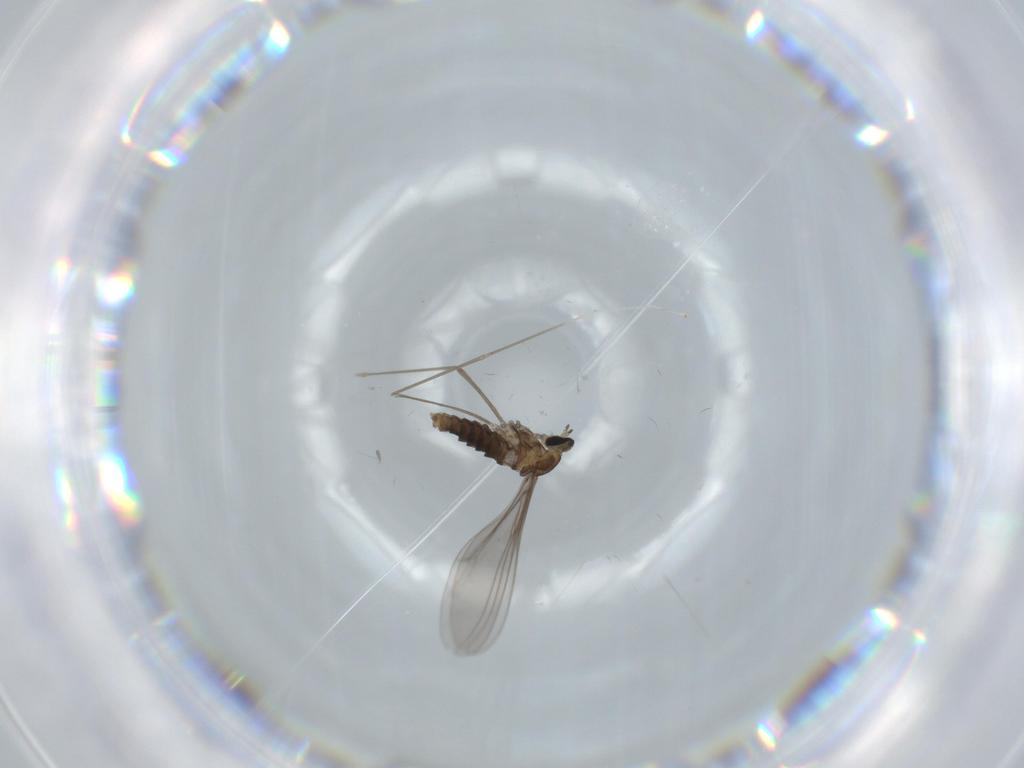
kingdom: Animalia
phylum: Arthropoda
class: Insecta
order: Diptera
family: Cecidomyiidae
